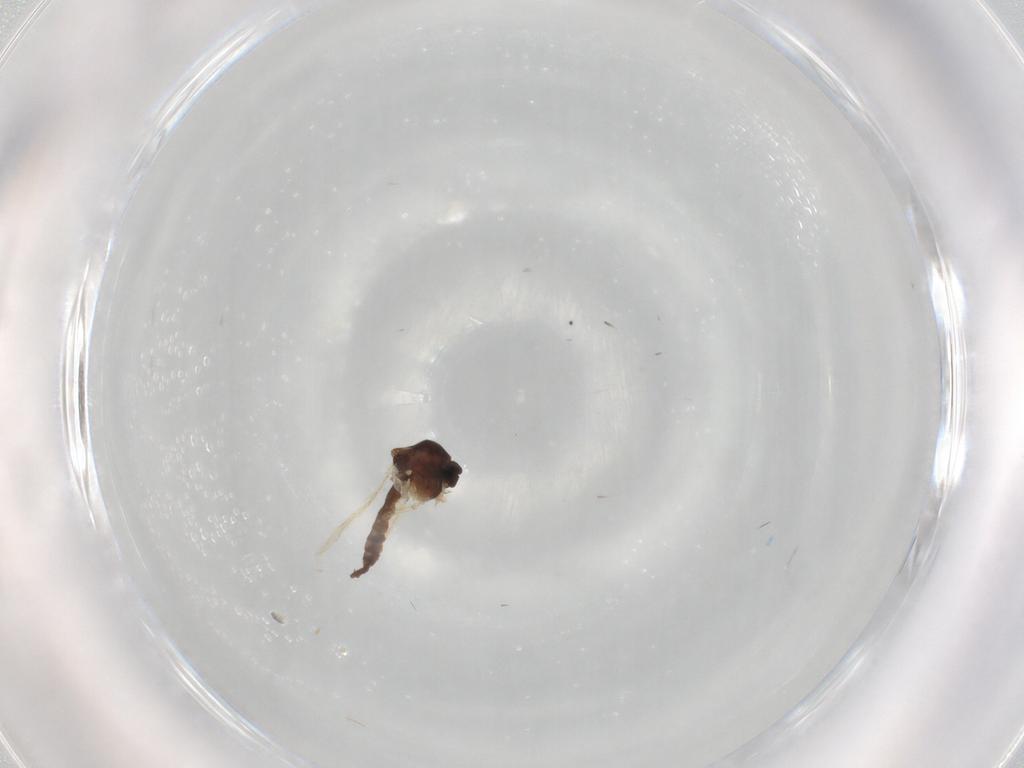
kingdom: Animalia
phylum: Arthropoda
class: Insecta
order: Diptera
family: Ceratopogonidae
